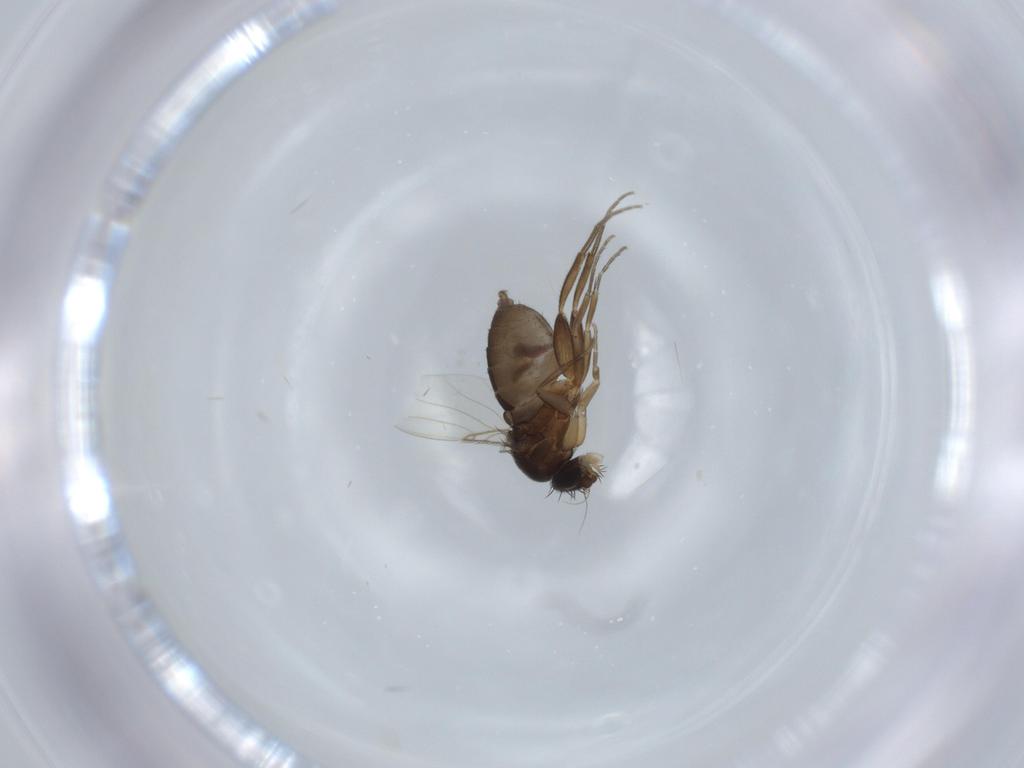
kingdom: Animalia
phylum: Arthropoda
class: Insecta
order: Diptera
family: Phoridae
